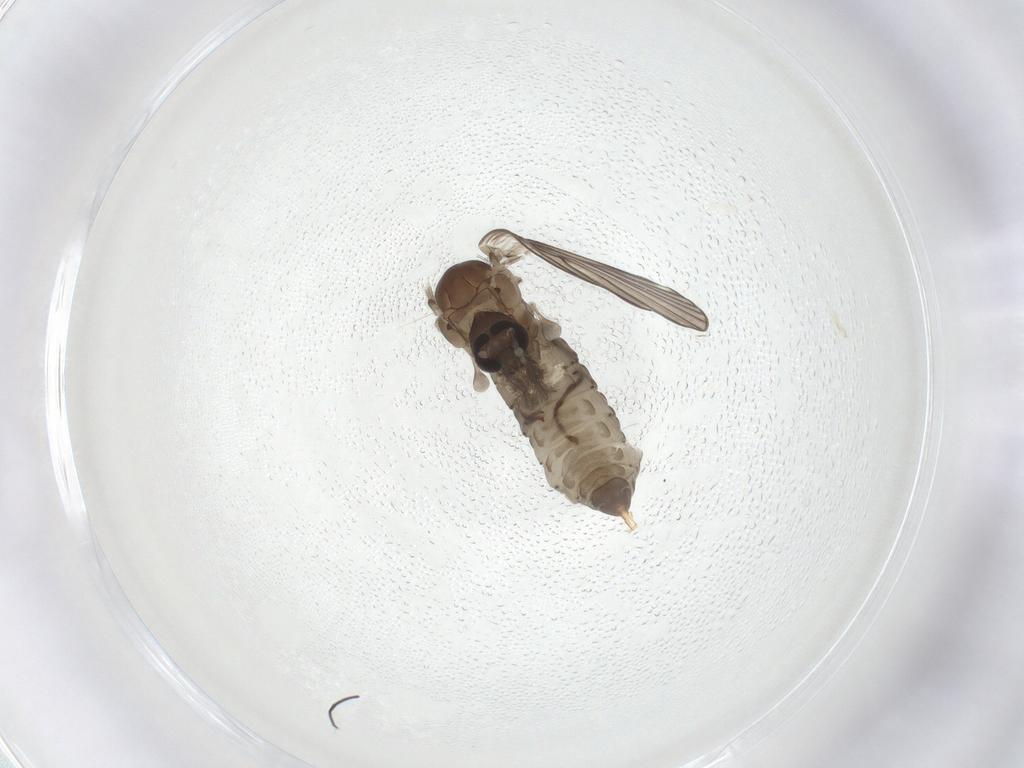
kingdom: Animalia
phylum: Arthropoda
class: Insecta
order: Diptera
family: Psychodidae
